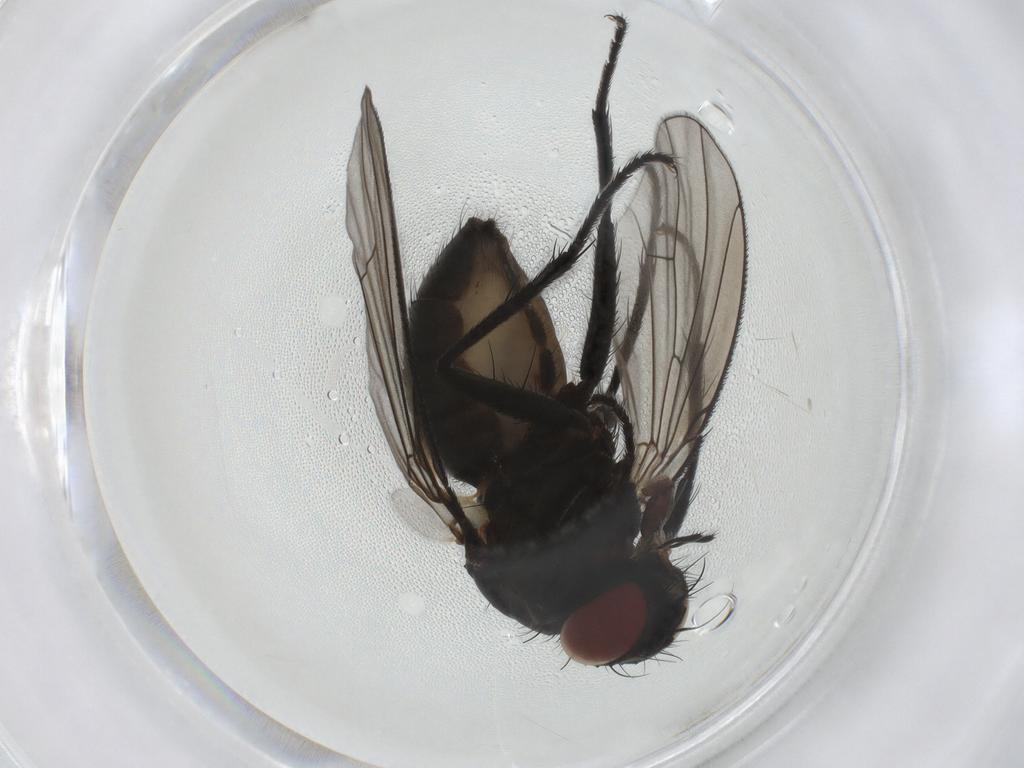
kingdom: Animalia
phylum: Arthropoda
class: Insecta
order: Diptera
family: Muscidae
